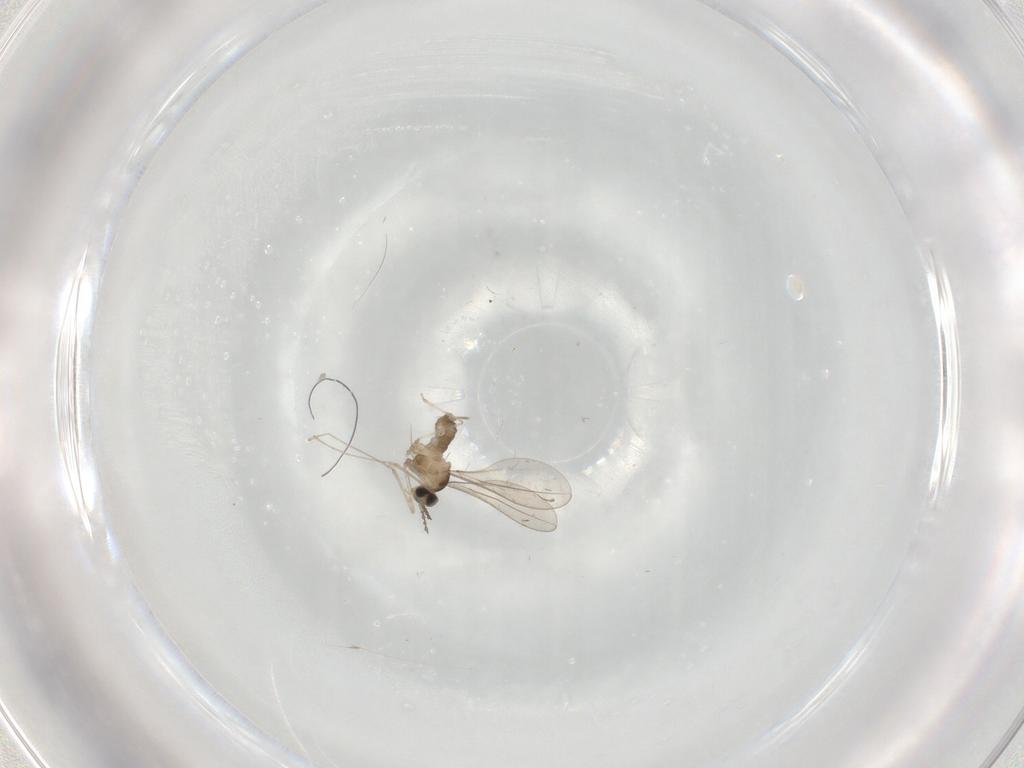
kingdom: Animalia
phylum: Arthropoda
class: Insecta
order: Diptera
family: Cecidomyiidae
